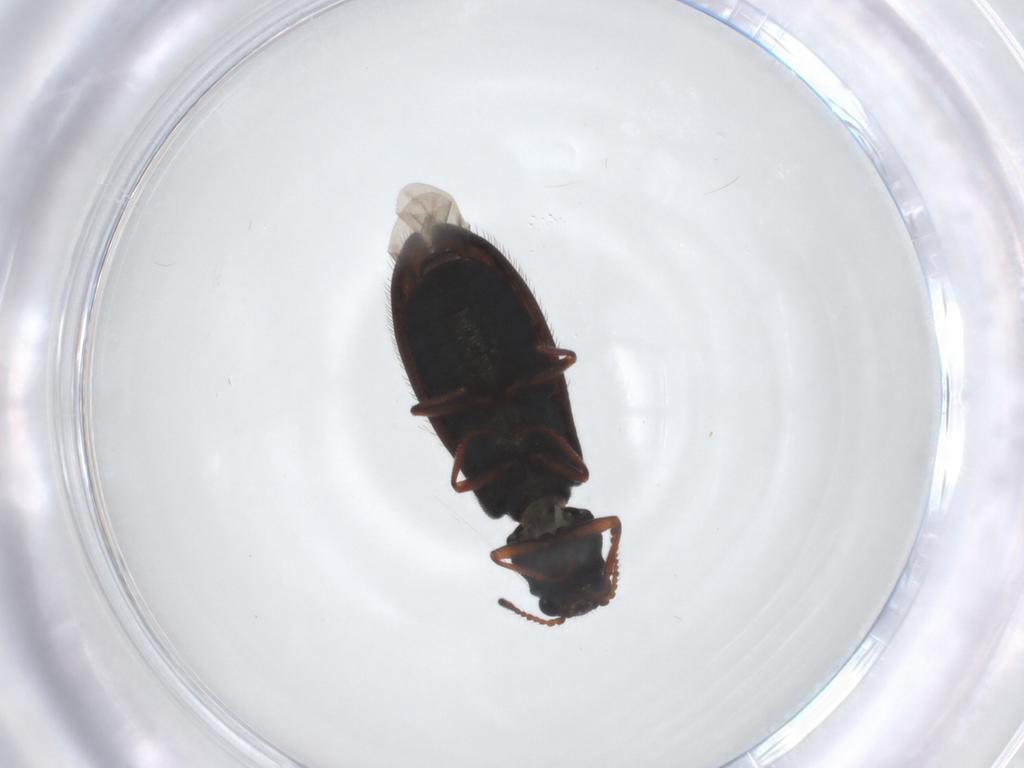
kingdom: Animalia
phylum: Arthropoda
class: Insecta
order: Coleoptera
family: Melyridae
